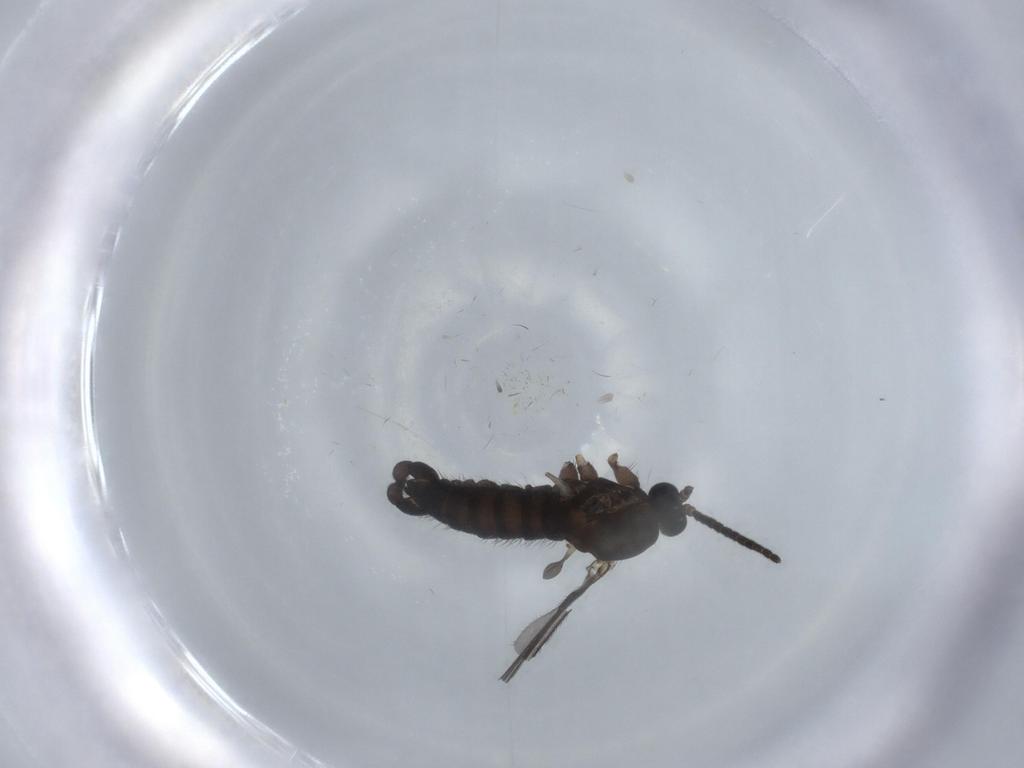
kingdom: Animalia
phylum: Arthropoda
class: Insecta
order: Diptera
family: Sciaridae
